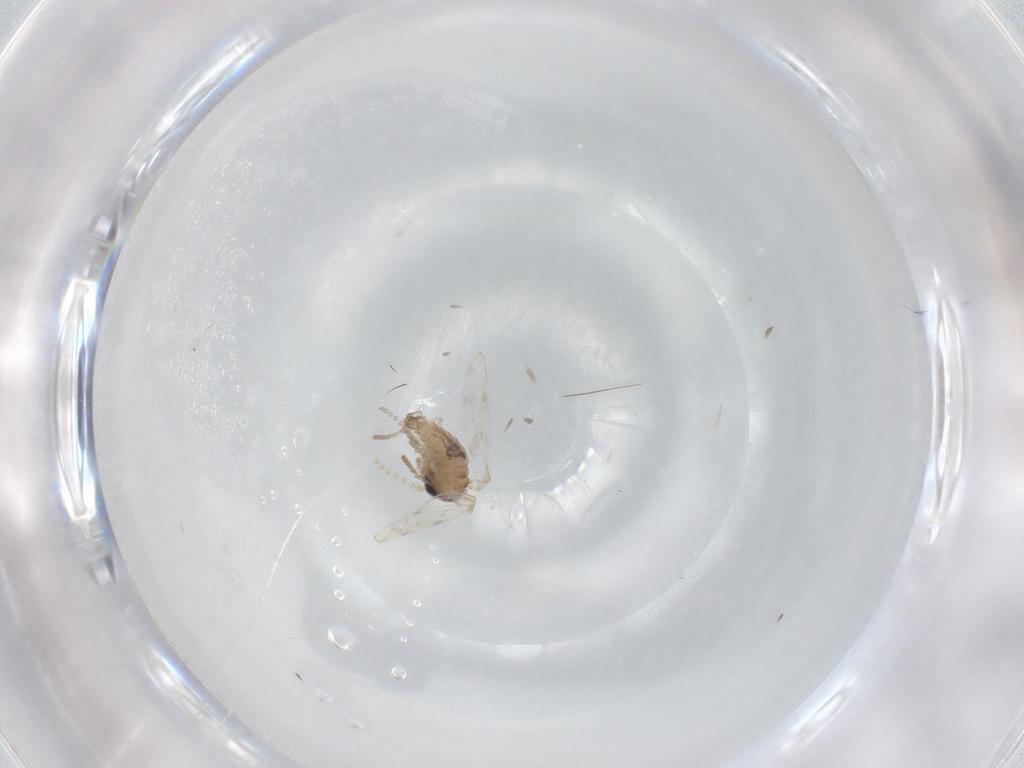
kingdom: Animalia
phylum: Arthropoda
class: Insecta
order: Diptera
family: Psychodidae
